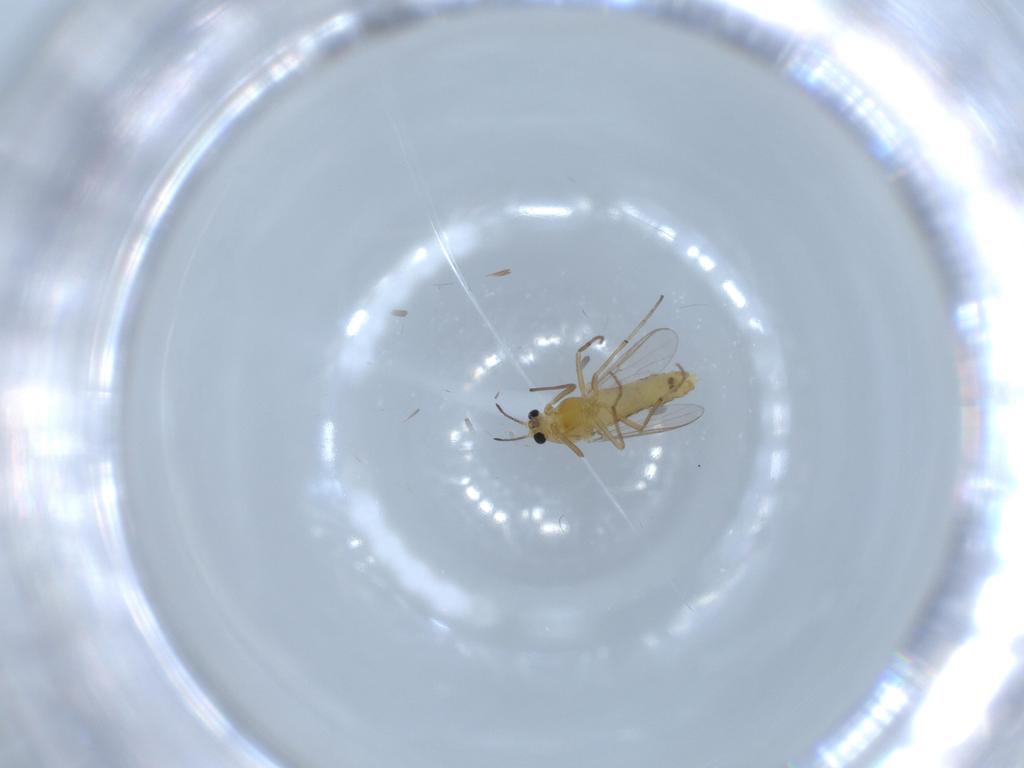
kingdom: Animalia
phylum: Arthropoda
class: Insecta
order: Diptera
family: Chironomidae
